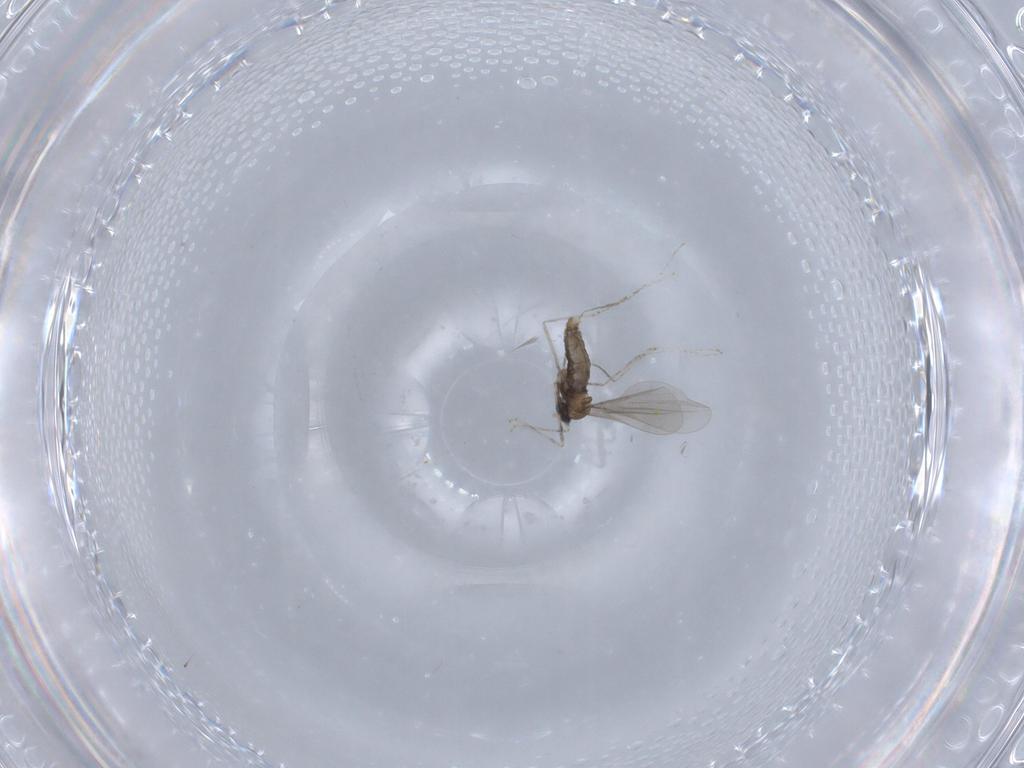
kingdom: Animalia
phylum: Arthropoda
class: Insecta
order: Diptera
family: Cecidomyiidae
